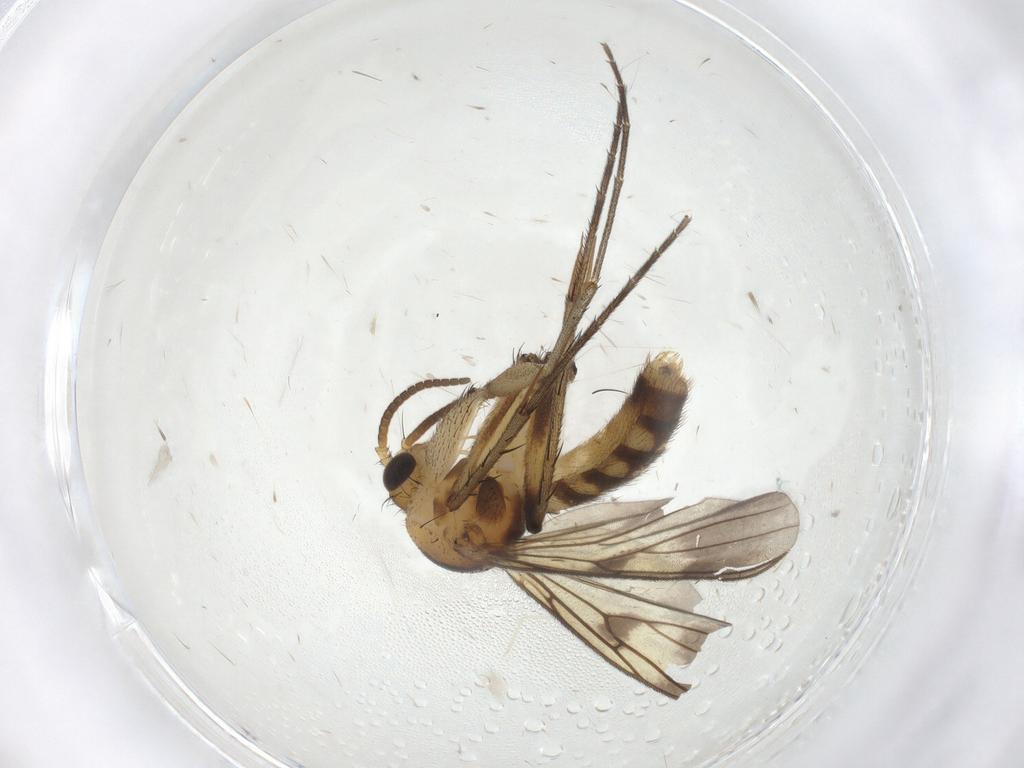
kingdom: Animalia
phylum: Arthropoda
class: Insecta
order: Diptera
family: Mycetophilidae
